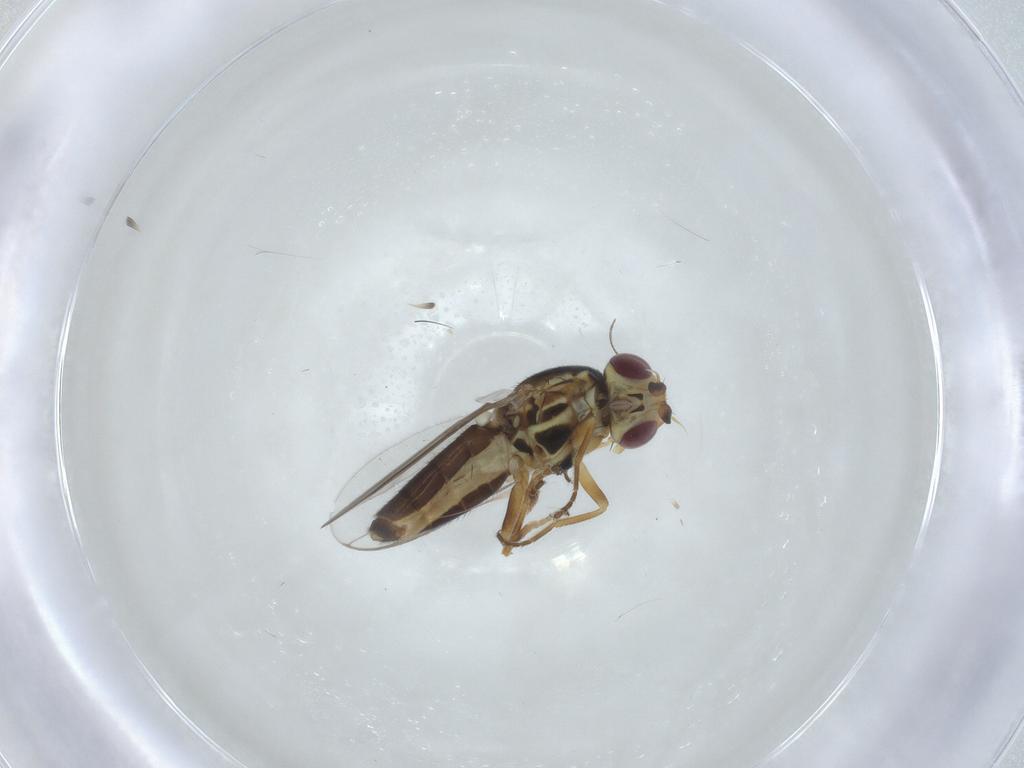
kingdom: Animalia
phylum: Arthropoda
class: Insecta
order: Diptera
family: Chloropidae
